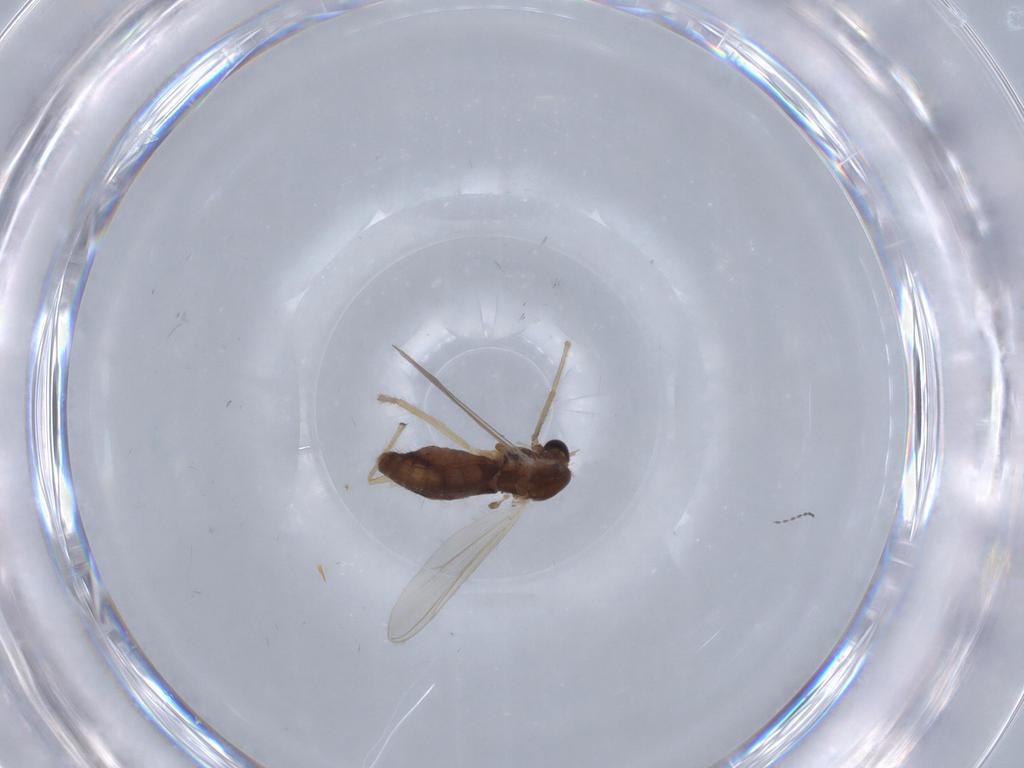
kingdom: Animalia
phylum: Arthropoda
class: Insecta
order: Diptera
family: Chironomidae
